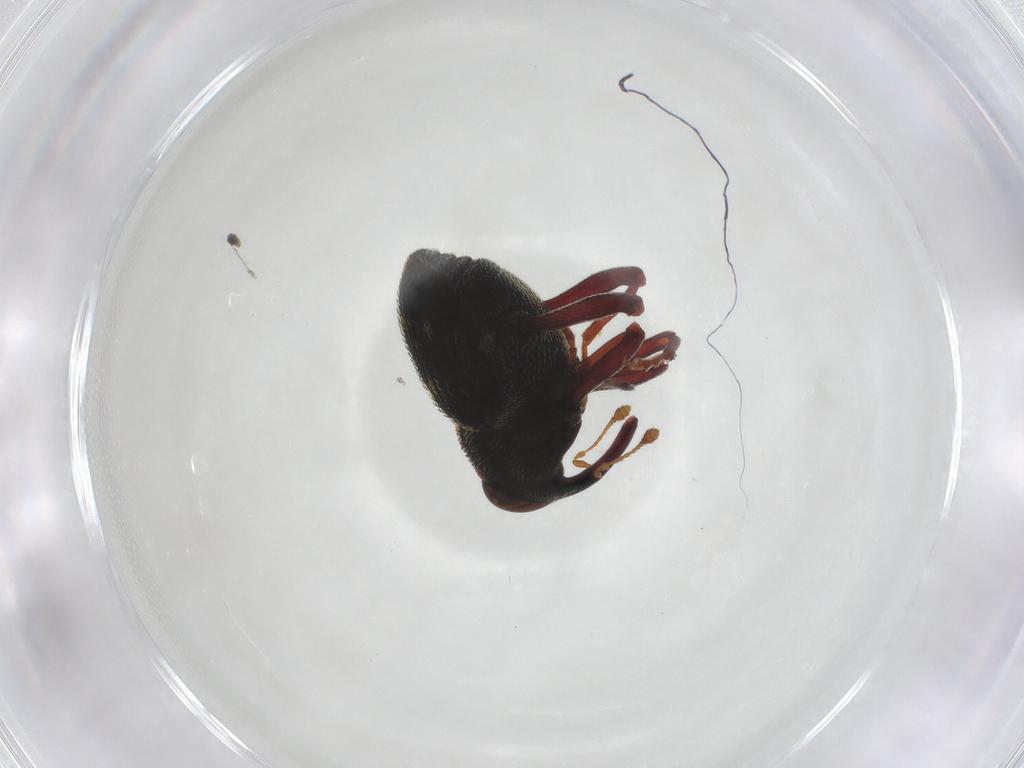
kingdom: Animalia
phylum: Arthropoda
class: Insecta
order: Coleoptera
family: Curculionidae
